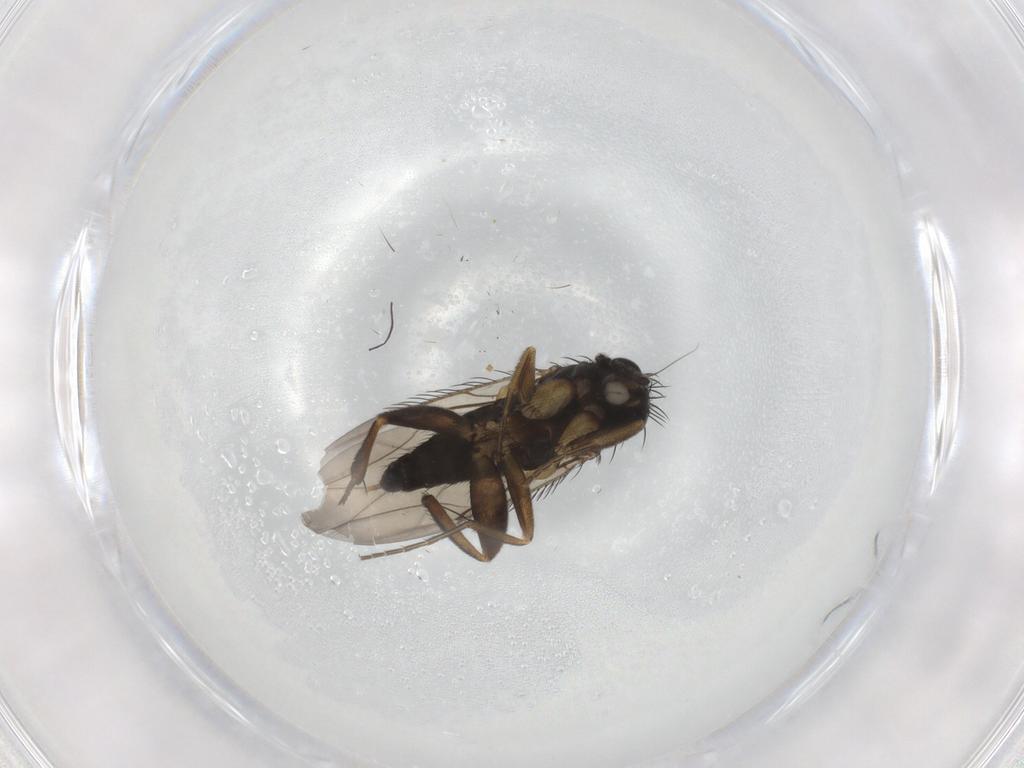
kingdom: Animalia
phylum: Arthropoda
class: Insecta
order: Diptera
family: Phoridae
